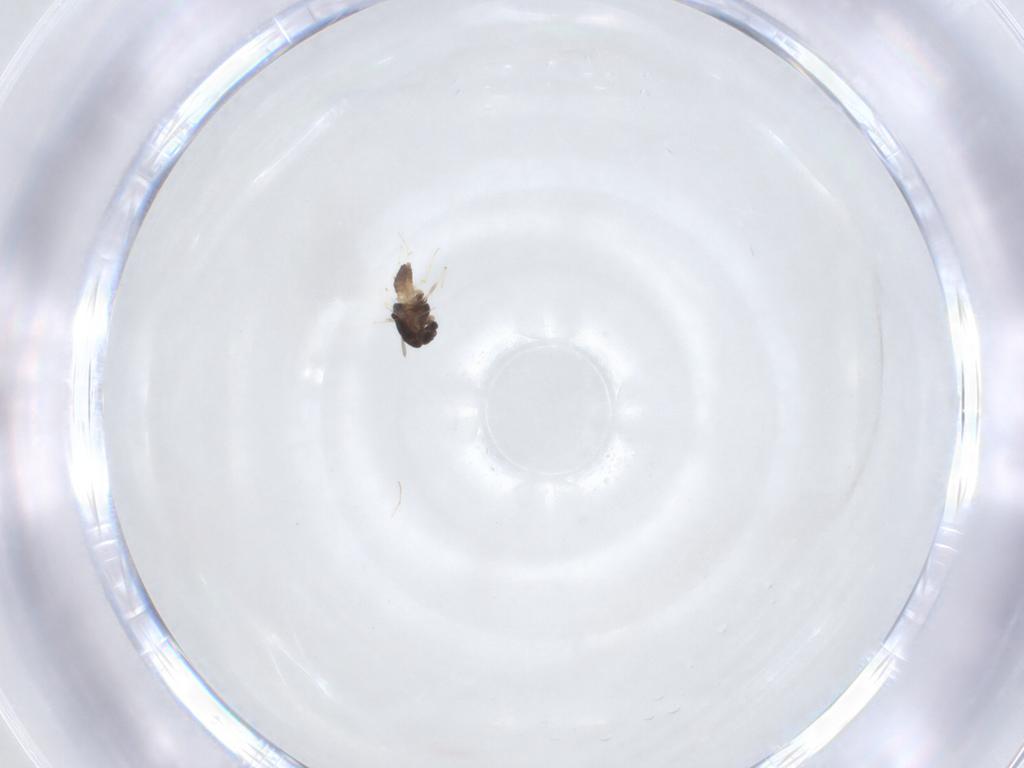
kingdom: Animalia
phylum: Arthropoda
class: Insecta
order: Diptera
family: Chironomidae
